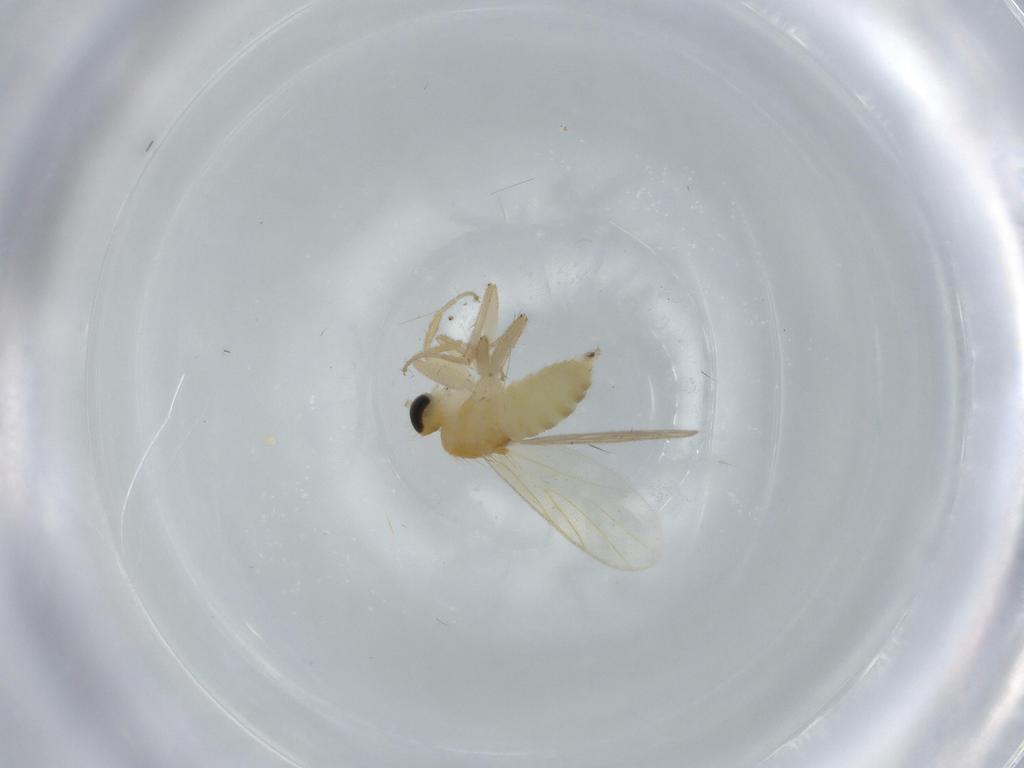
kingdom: Animalia
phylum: Arthropoda
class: Insecta
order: Diptera
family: Hybotidae
